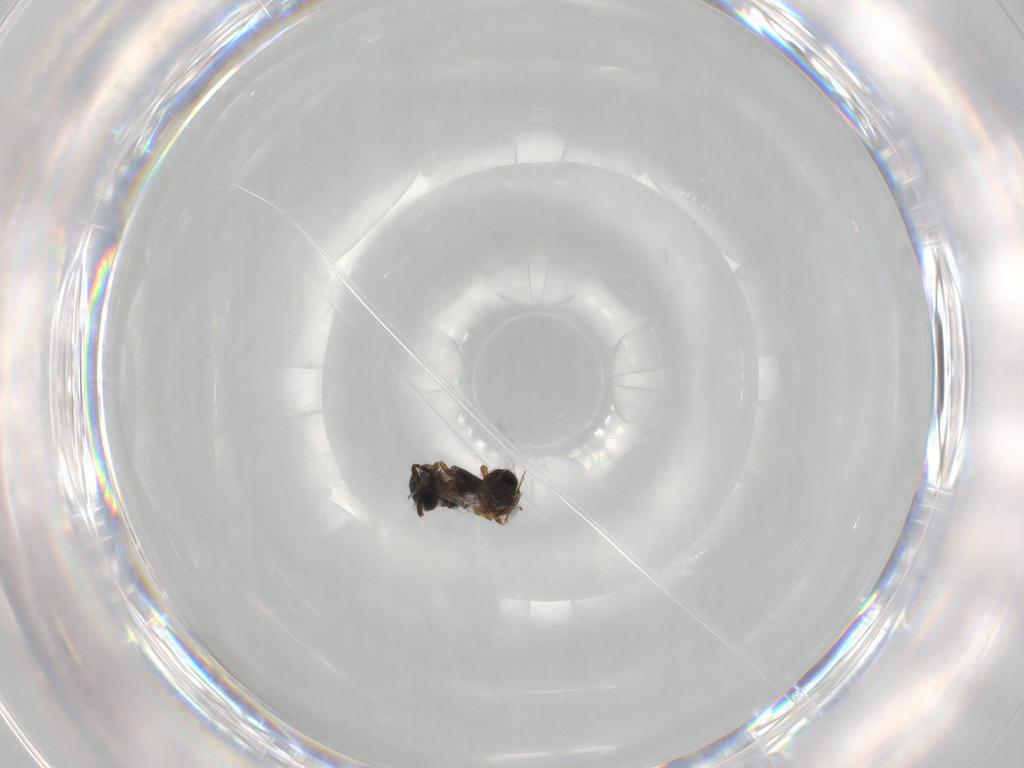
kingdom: Animalia
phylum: Arthropoda
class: Insecta
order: Hymenoptera
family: Scelionidae
